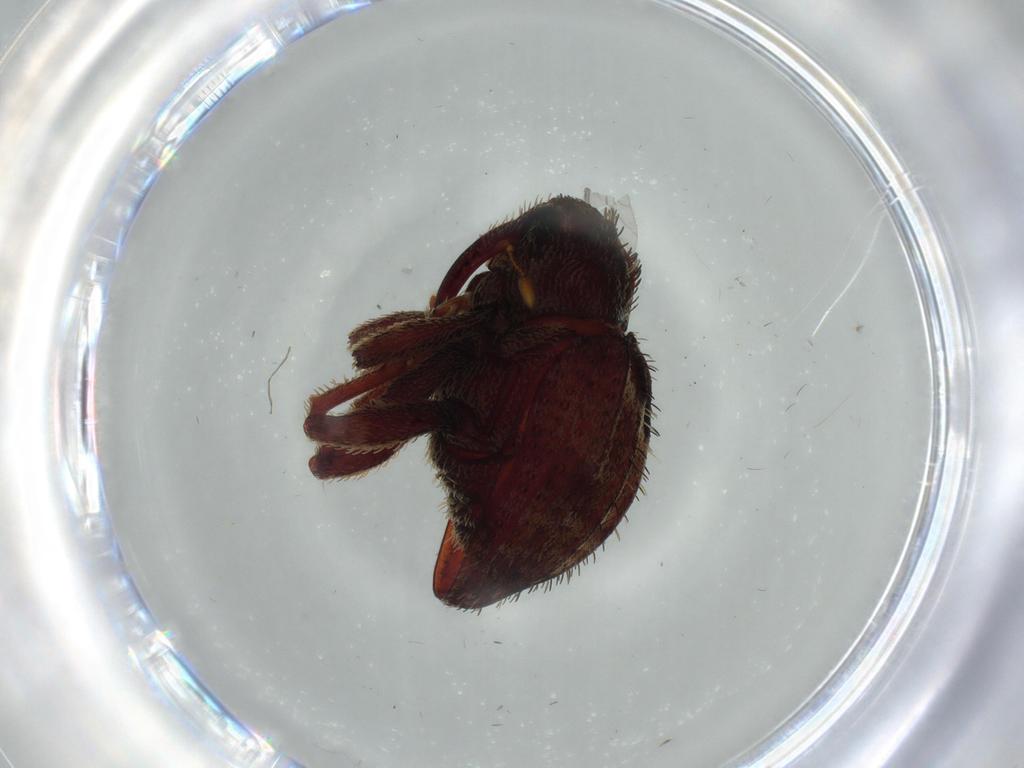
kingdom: Animalia
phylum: Arthropoda
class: Insecta
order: Coleoptera
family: Curculionidae
